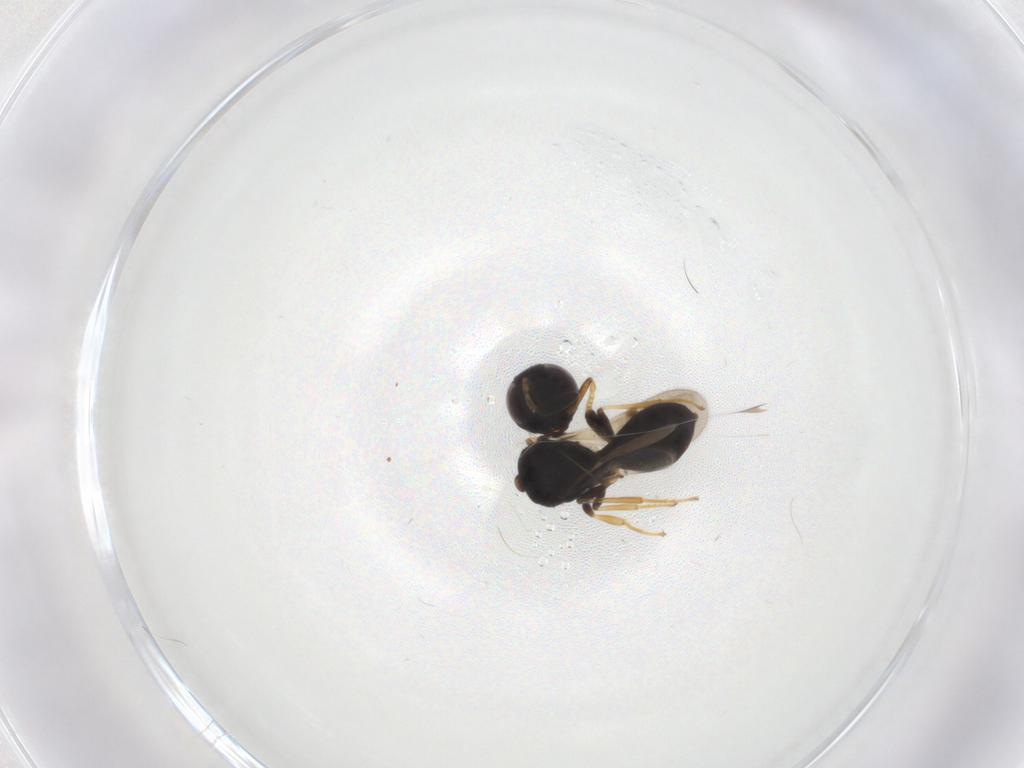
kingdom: Animalia
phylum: Arthropoda
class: Insecta
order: Hymenoptera
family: Scelionidae
